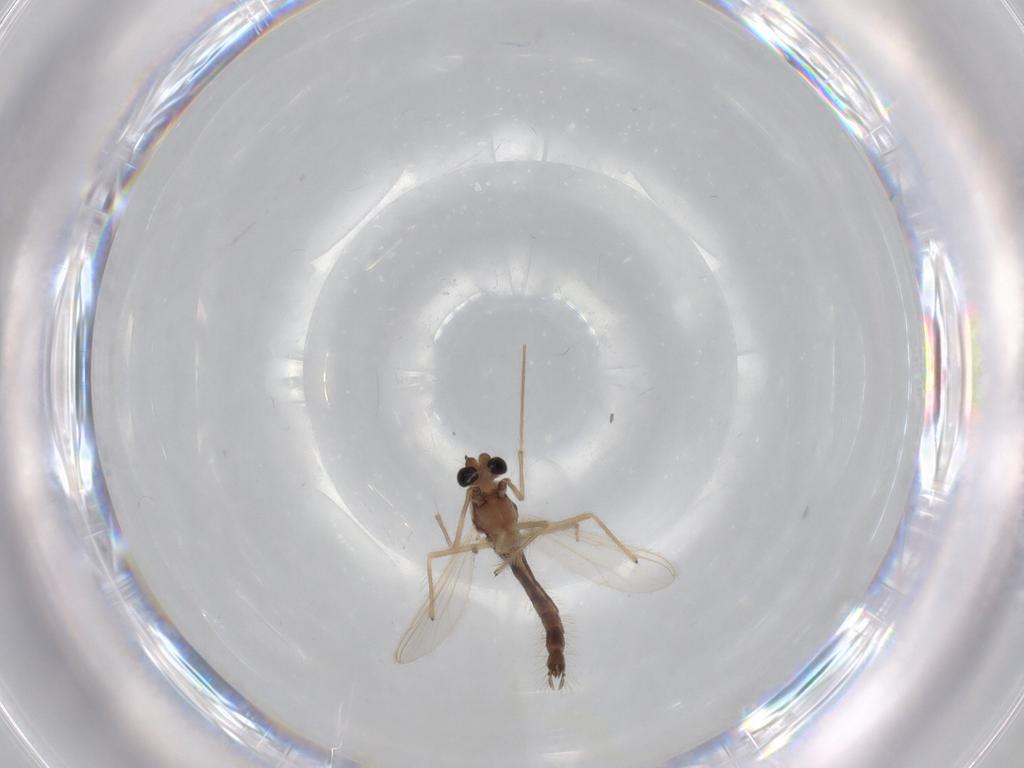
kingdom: Animalia
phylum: Arthropoda
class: Insecta
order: Diptera
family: Chironomidae
